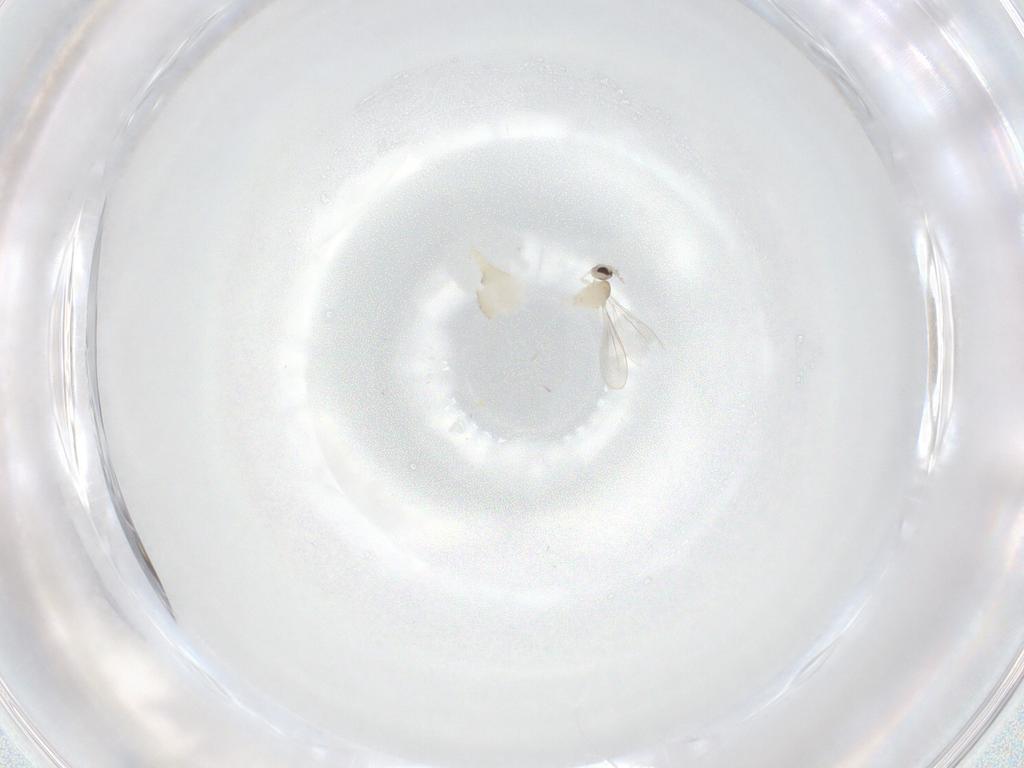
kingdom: Animalia
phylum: Arthropoda
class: Insecta
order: Diptera
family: Cecidomyiidae
